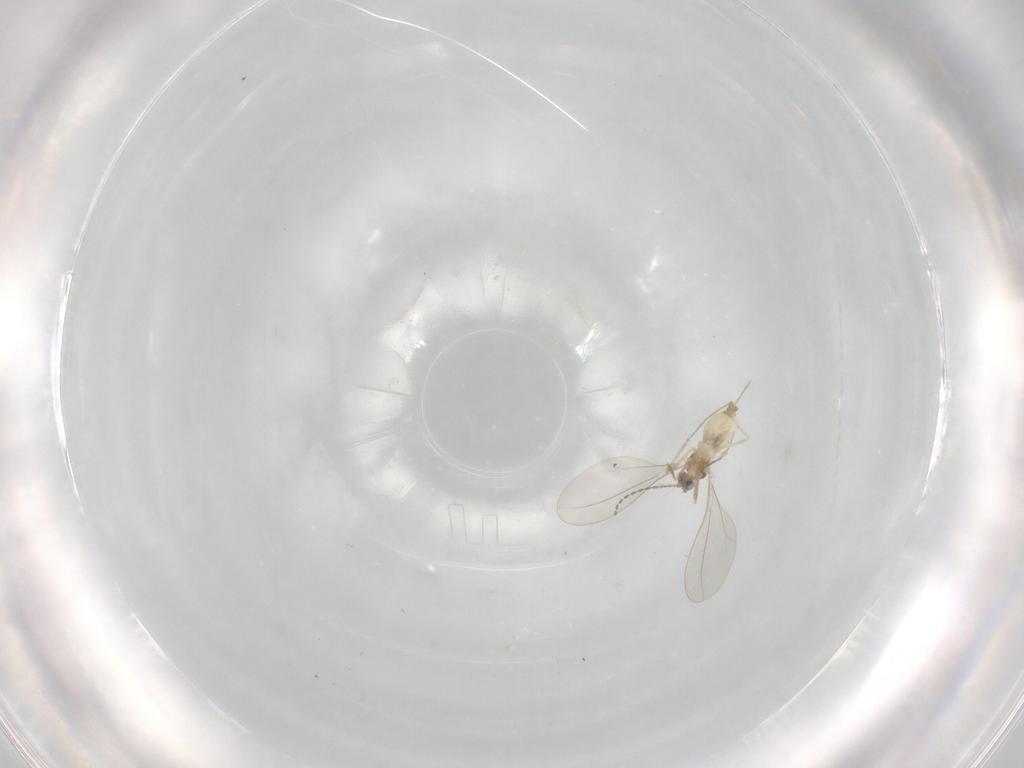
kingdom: Animalia
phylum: Arthropoda
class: Insecta
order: Diptera
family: Cecidomyiidae
